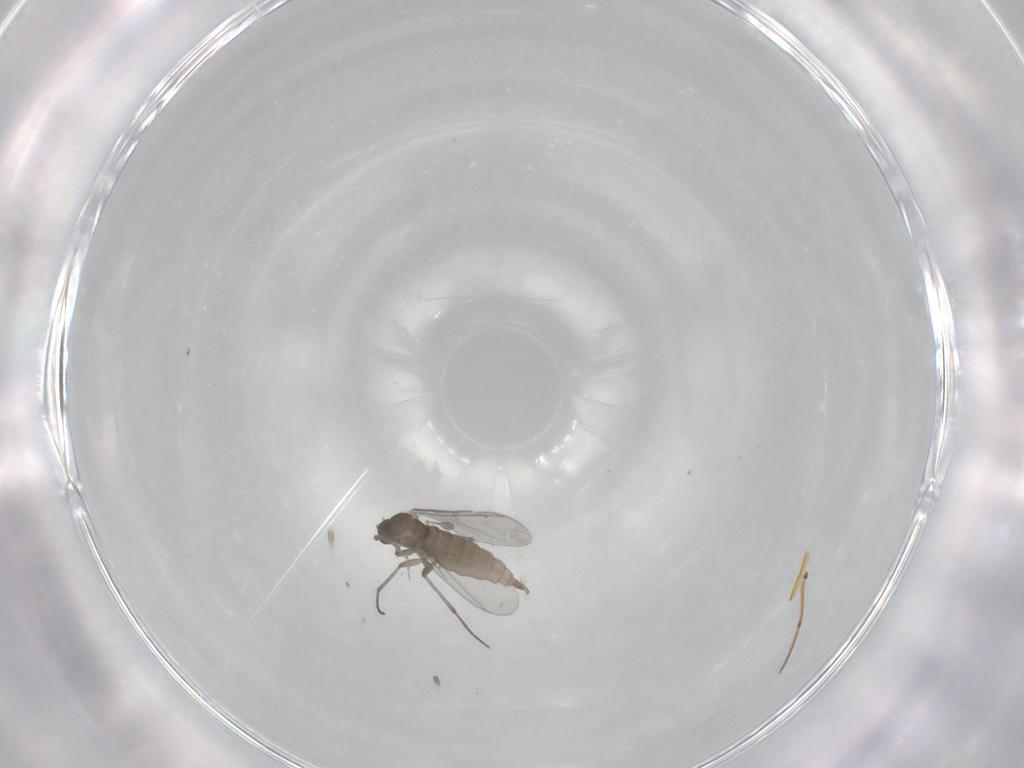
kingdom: Animalia
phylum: Arthropoda
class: Insecta
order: Diptera
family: Cecidomyiidae
